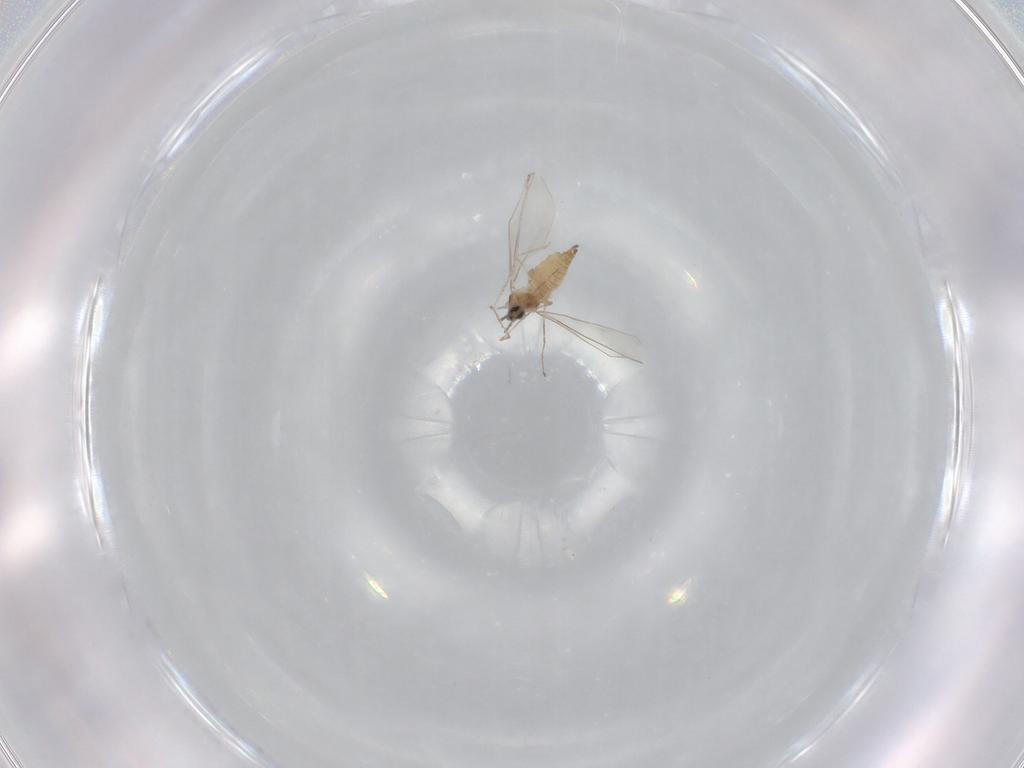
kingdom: Animalia
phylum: Arthropoda
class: Insecta
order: Diptera
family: Cecidomyiidae
